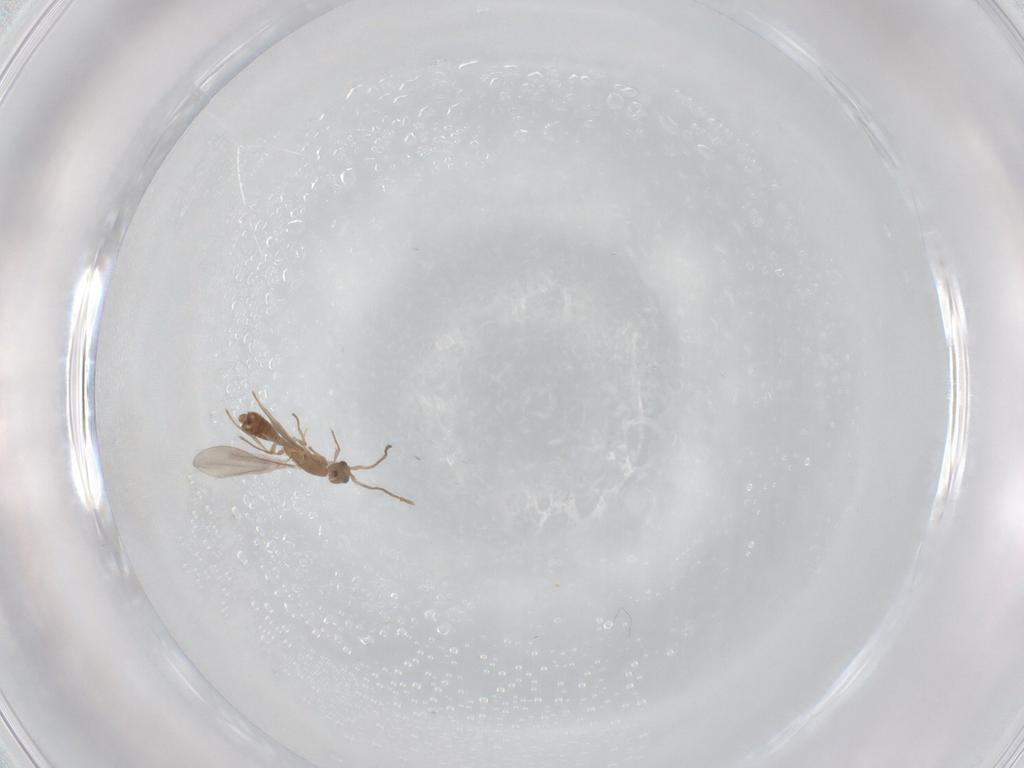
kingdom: Animalia
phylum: Arthropoda
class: Insecta
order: Hymenoptera
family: Formicidae
